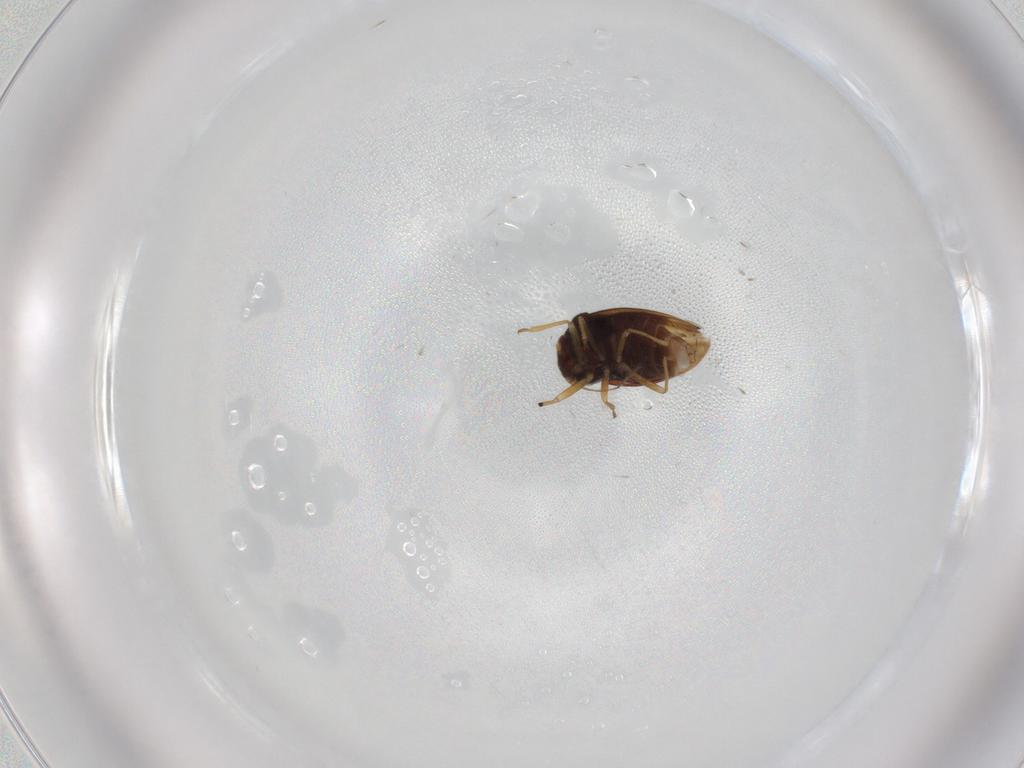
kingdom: Animalia
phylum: Arthropoda
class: Insecta
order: Hemiptera
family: Schizopteridae
